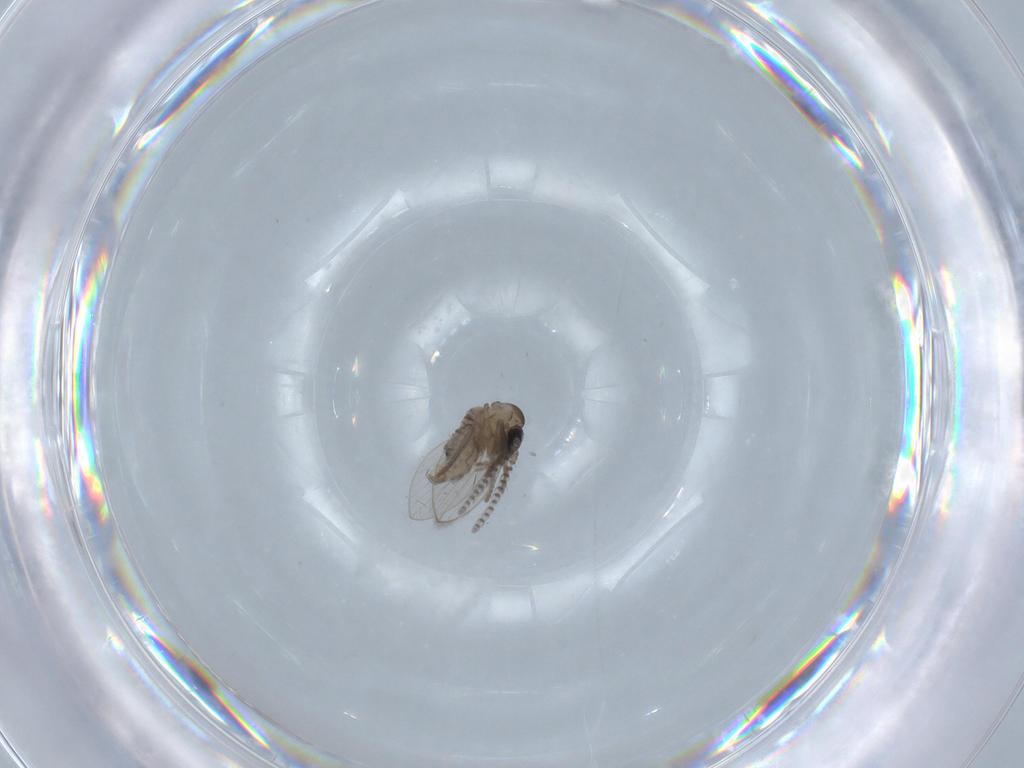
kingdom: Animalia
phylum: Arthropoda
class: Insecta
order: Diptera
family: Psychodidae
